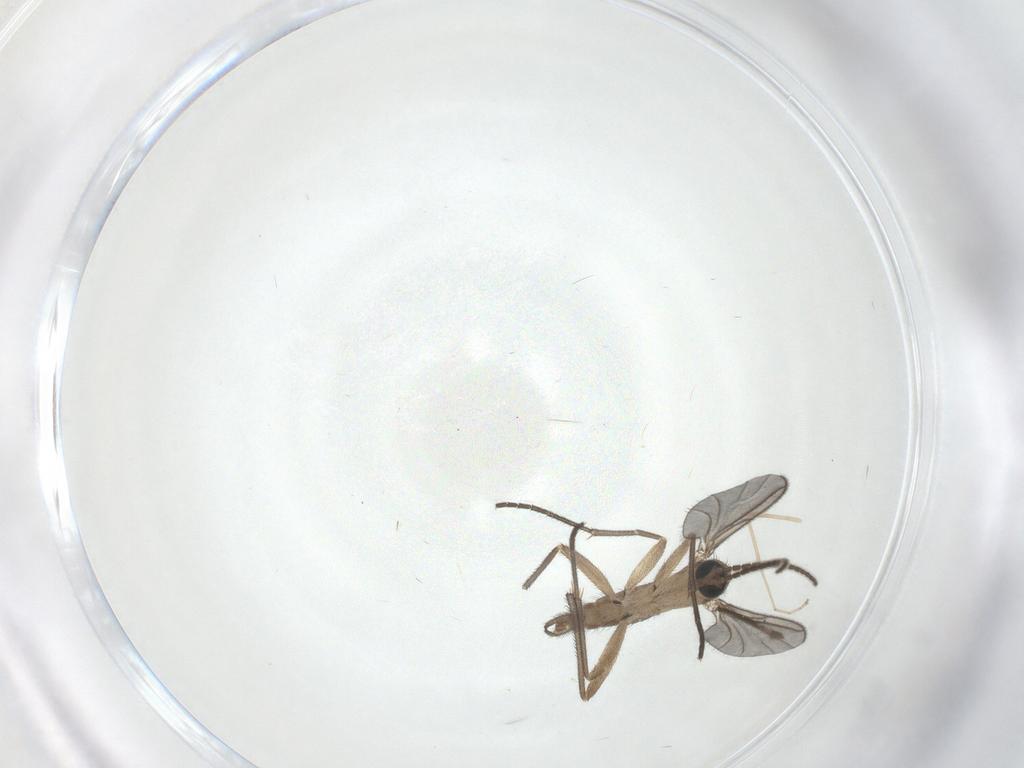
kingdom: Animalia
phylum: Arthropoda
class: Insecta
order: Diptera
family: Sciaridae
